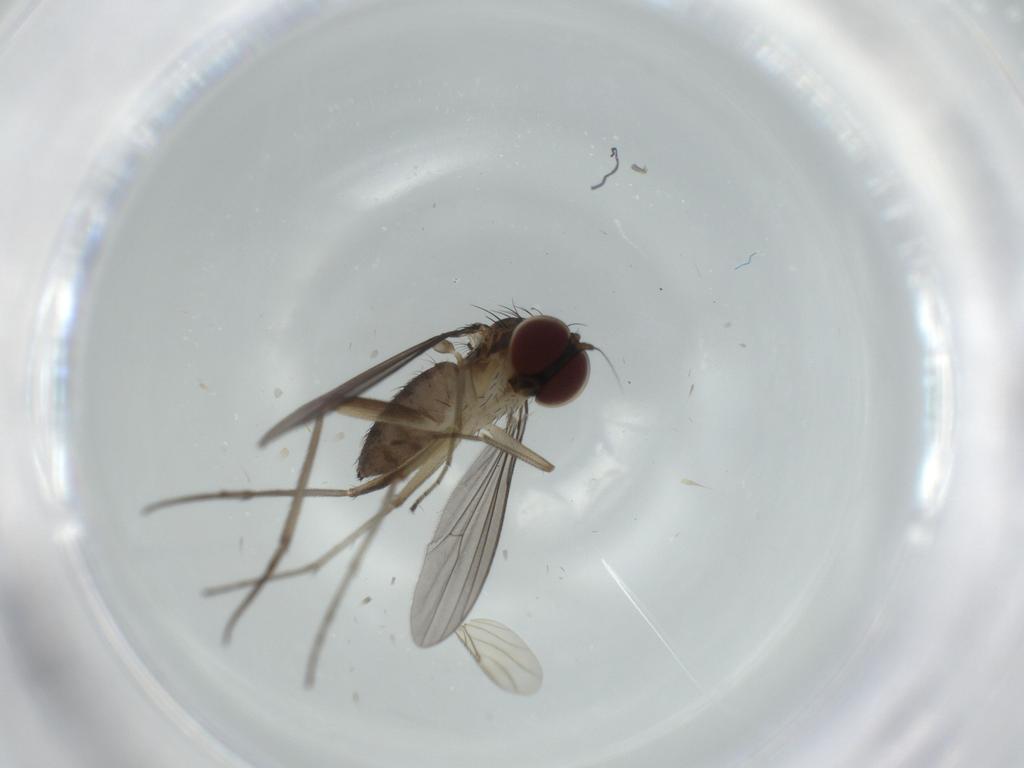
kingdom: Animalia
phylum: Arthropoda
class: Insecta
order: Diptera
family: Dolichopodidae
